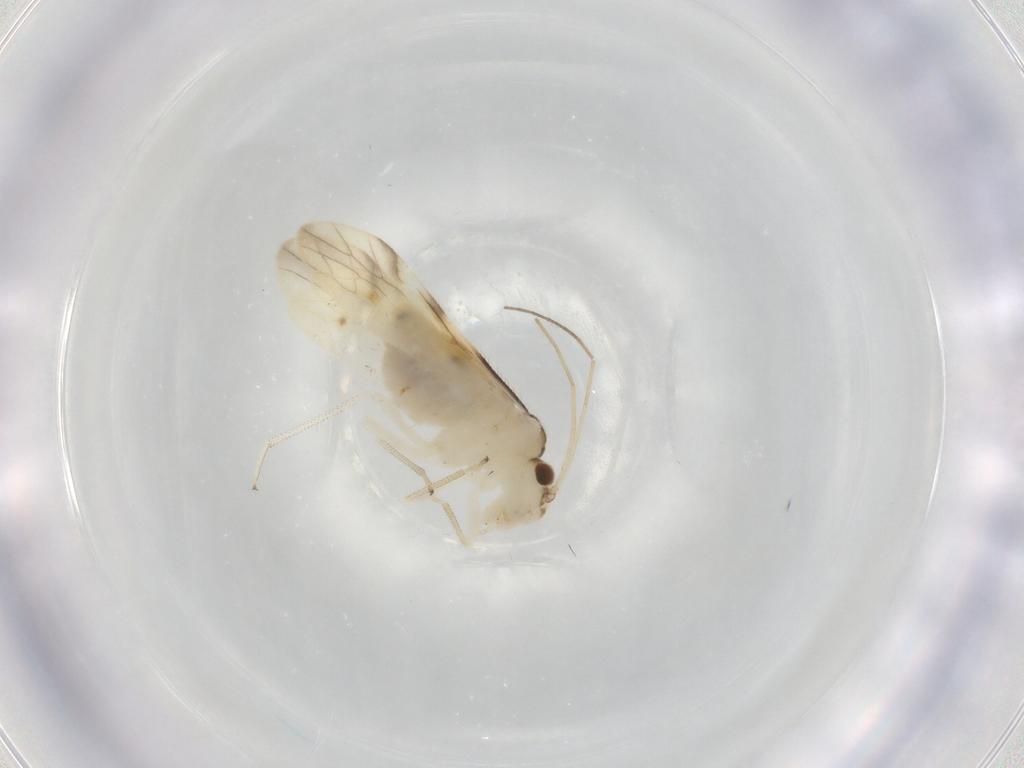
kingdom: Animalia
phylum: Arthropoda
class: Insecta
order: Psocodea
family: Caeciliusidae
